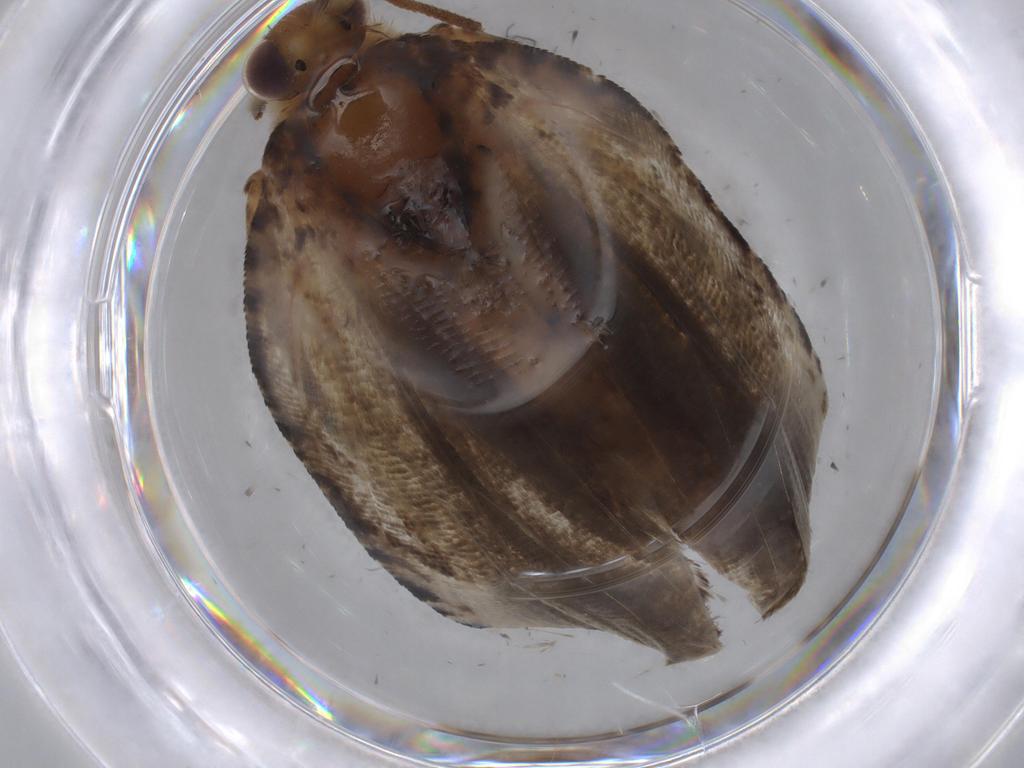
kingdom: Animalia
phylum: Arthropoda
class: Insecta
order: Lepidoptera
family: Tortricidae
